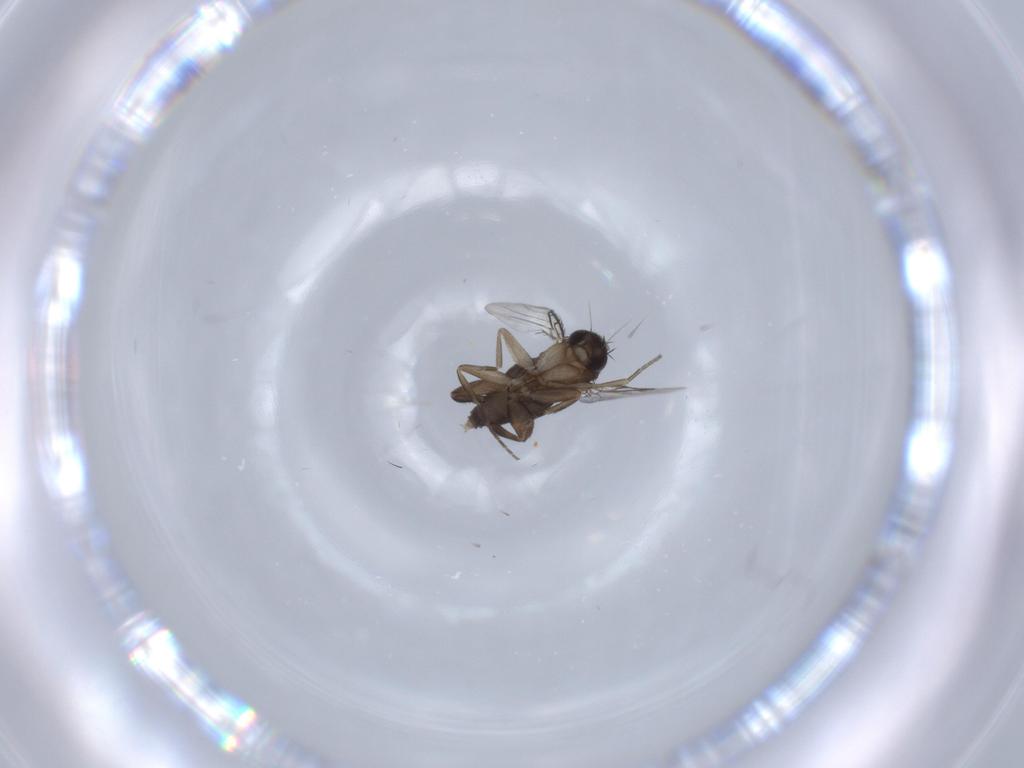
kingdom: Animalia
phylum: Arthropoda
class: Insecta
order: Diptera
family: Phoridae
